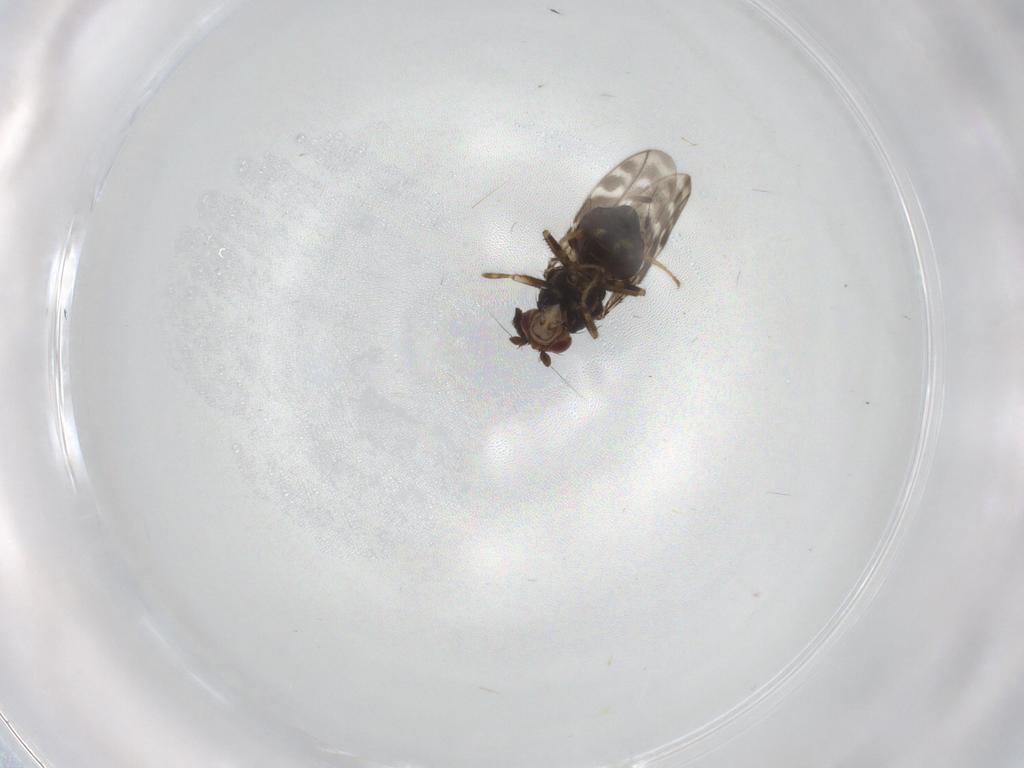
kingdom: Animalia
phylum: Arthropoda
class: Insecta
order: Diptera
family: Sphaeroceridae
